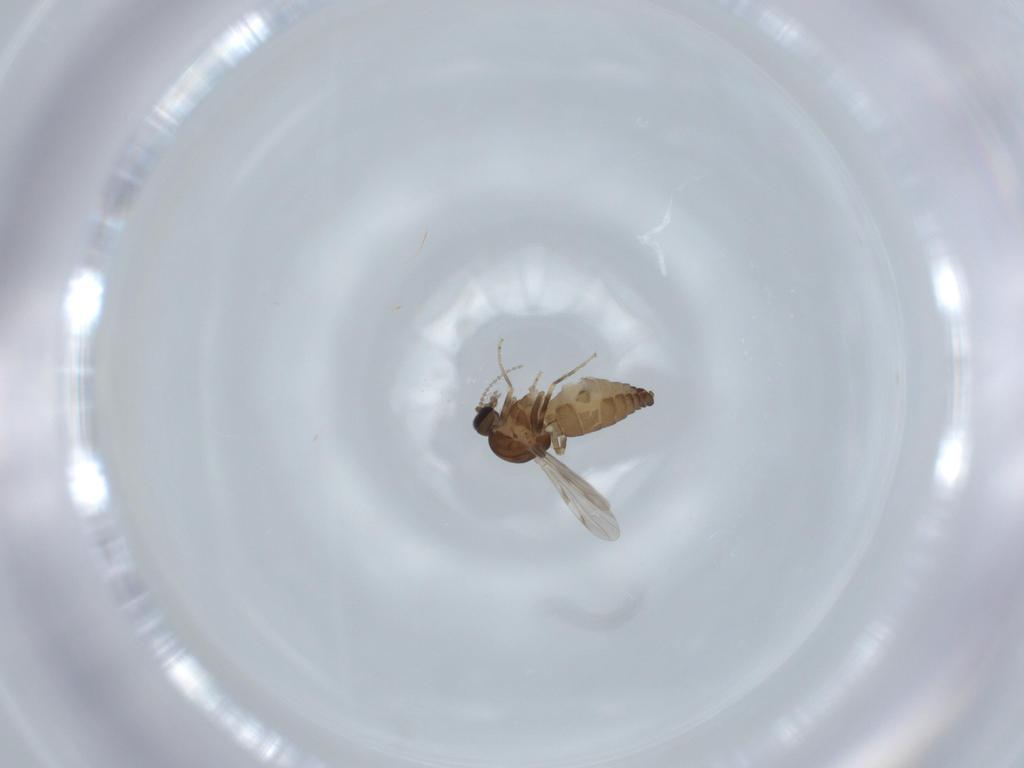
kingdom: Animalia
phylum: Arthropoda
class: Insecta
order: Diptera
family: Ceratopogonidae
